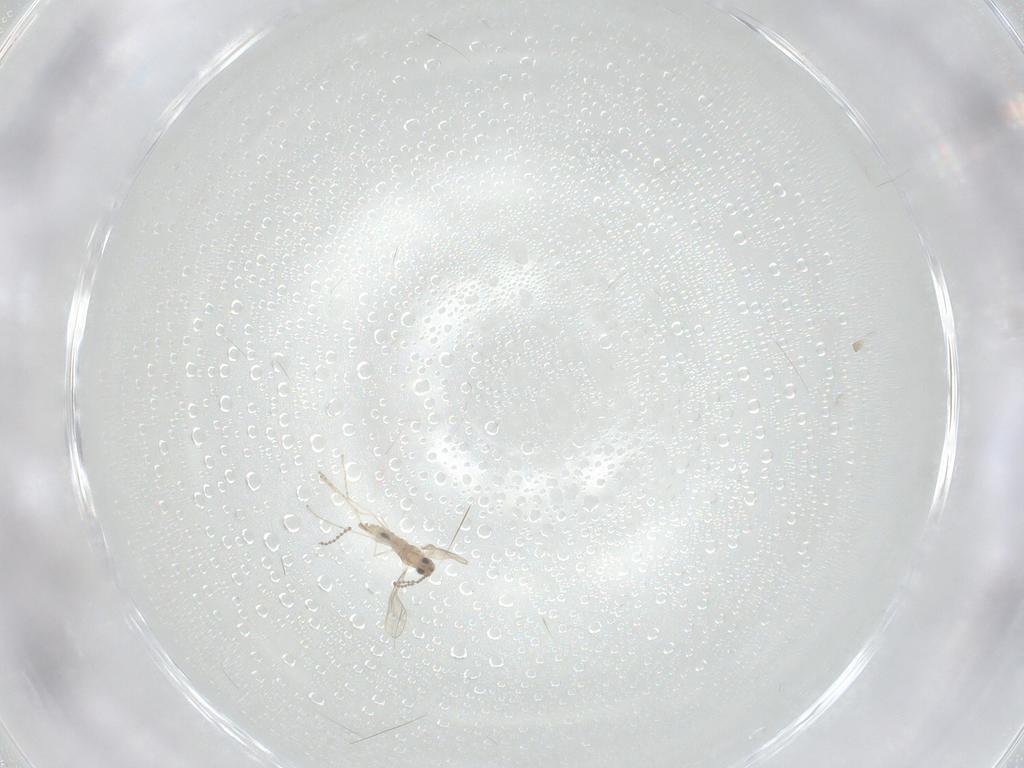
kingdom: Animalia
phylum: Arthropoda
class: Insecta
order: Diptera
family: Cecidomyiidae
